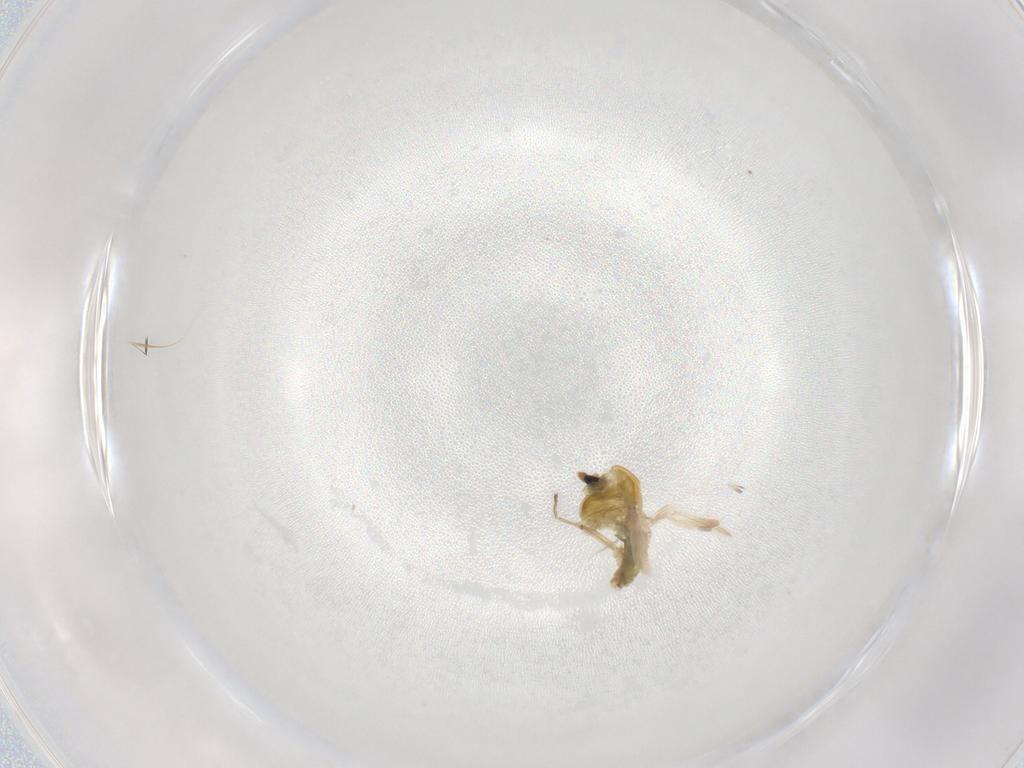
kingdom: Animalia
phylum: Arthropoda
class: Insecta
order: Diptera
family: Chironomidae
